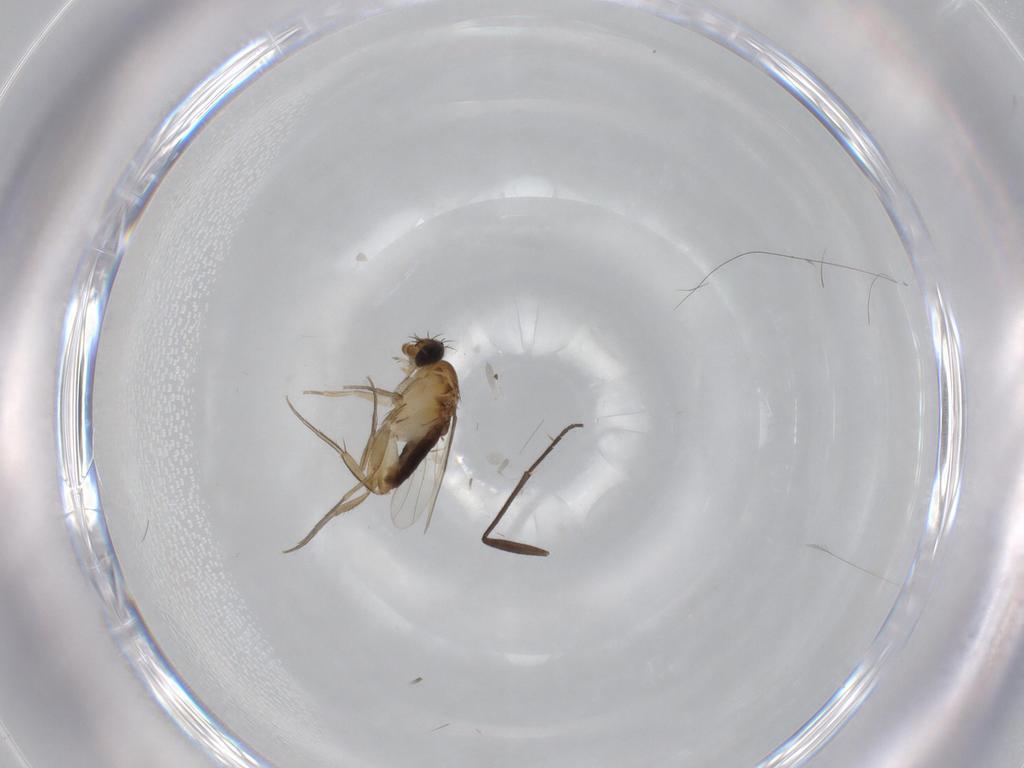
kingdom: Animalia
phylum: Arthropoda
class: Insecta
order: Diptera
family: Phoridae
